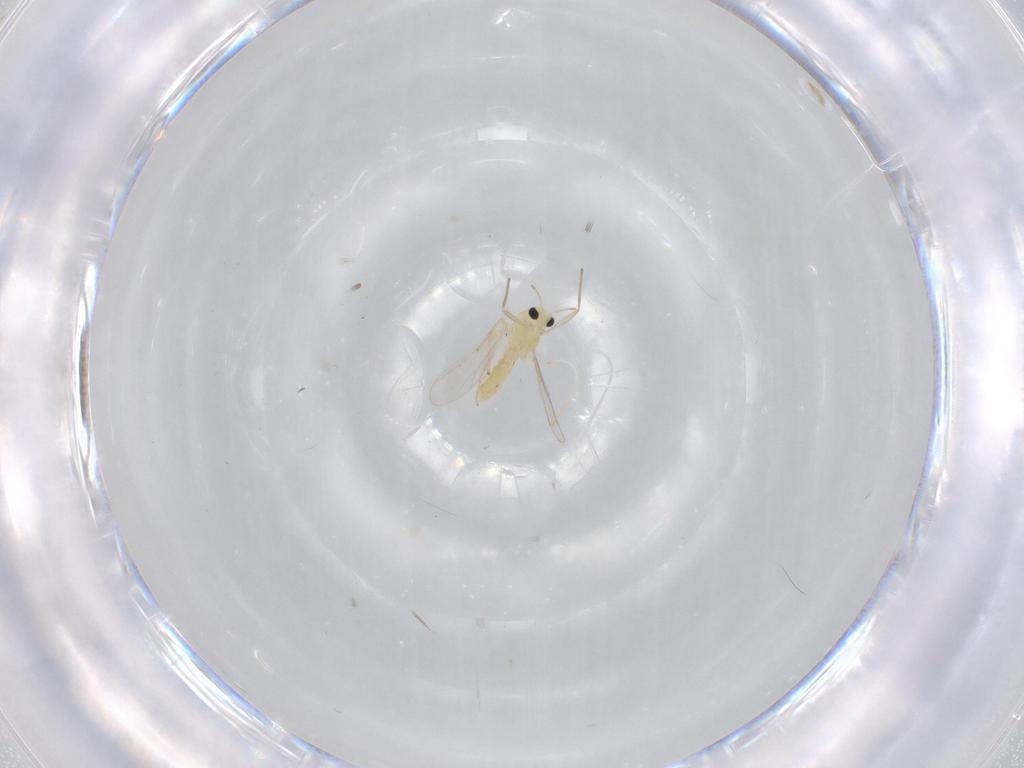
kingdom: Animalia
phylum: Arthropoda
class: Insecta
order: Diptera
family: Chironomidae
